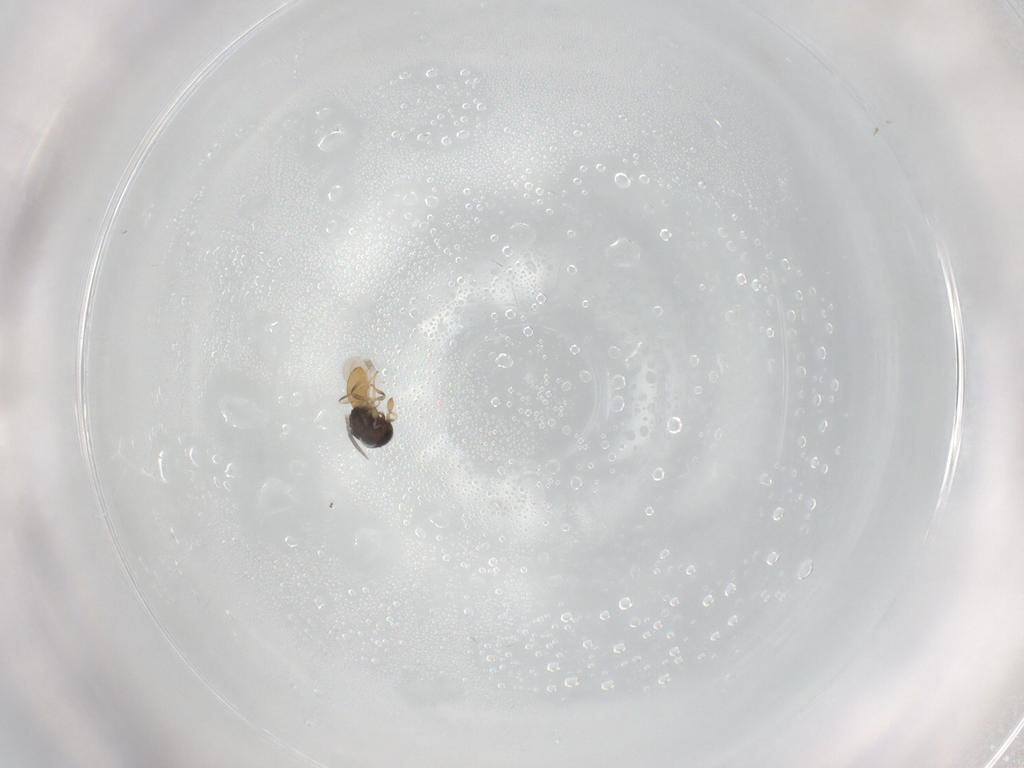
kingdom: Animalia
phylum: Arthropoda
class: Insecta
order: Hymenoptera
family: Scelionidae
